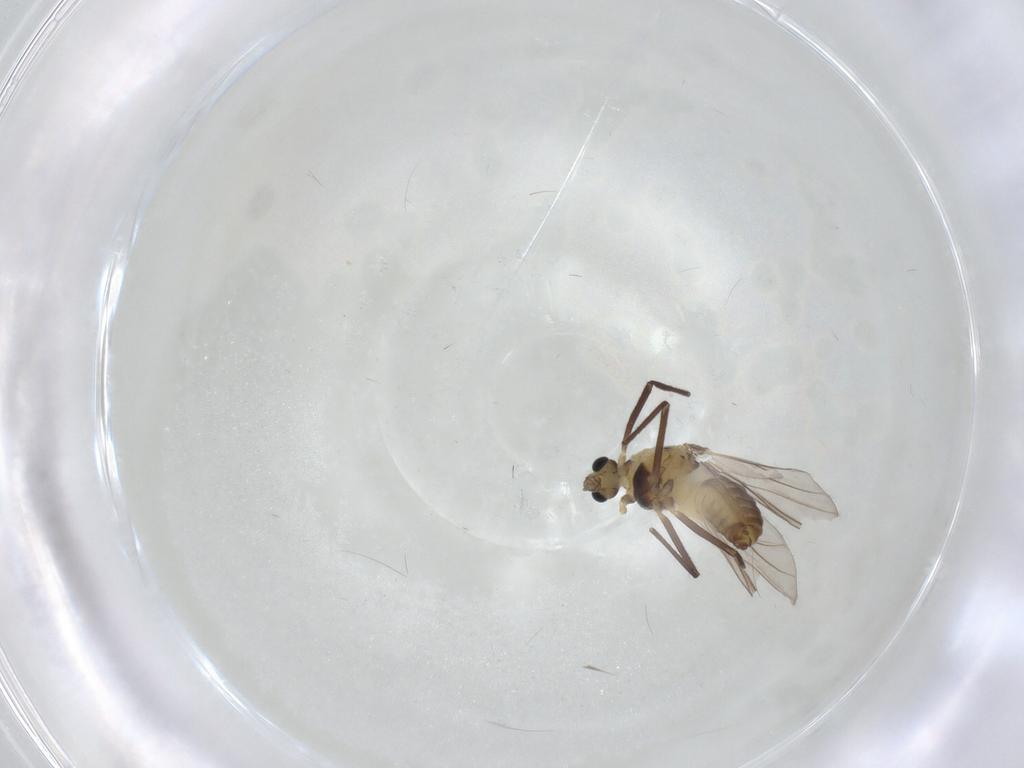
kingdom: Animalia
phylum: Arthropoda
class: Insecta
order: Diptera
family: Chironomidae
